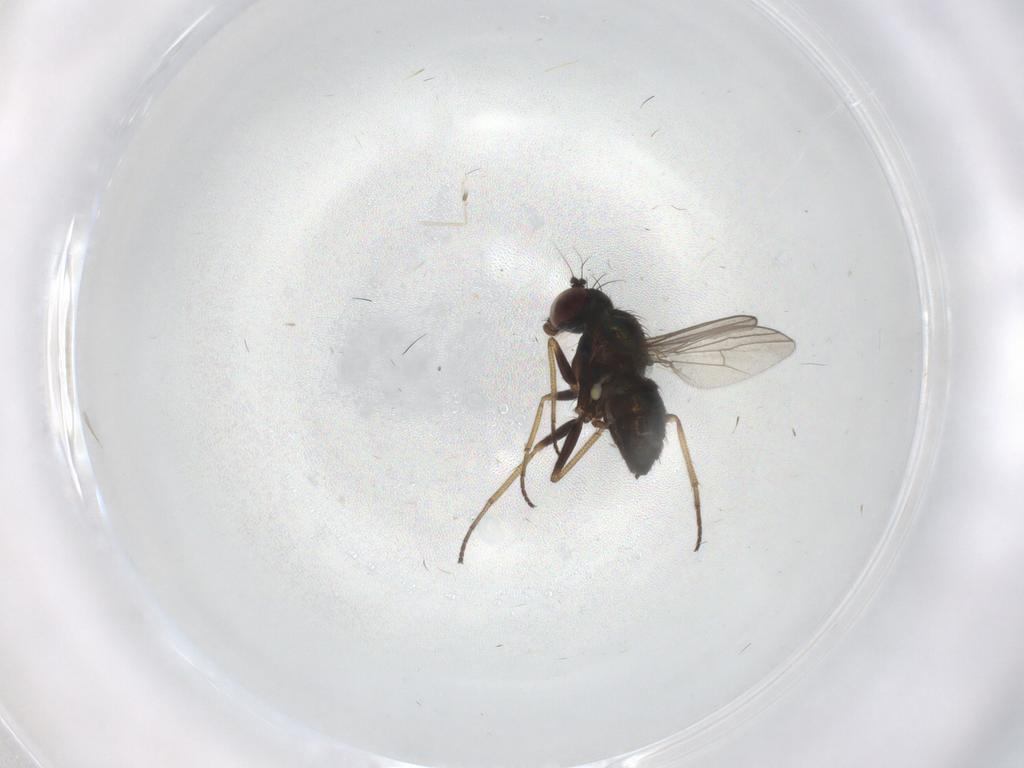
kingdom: Animalia
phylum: Arthropoda
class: Insecta
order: Diptera
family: Dolichopodidae
